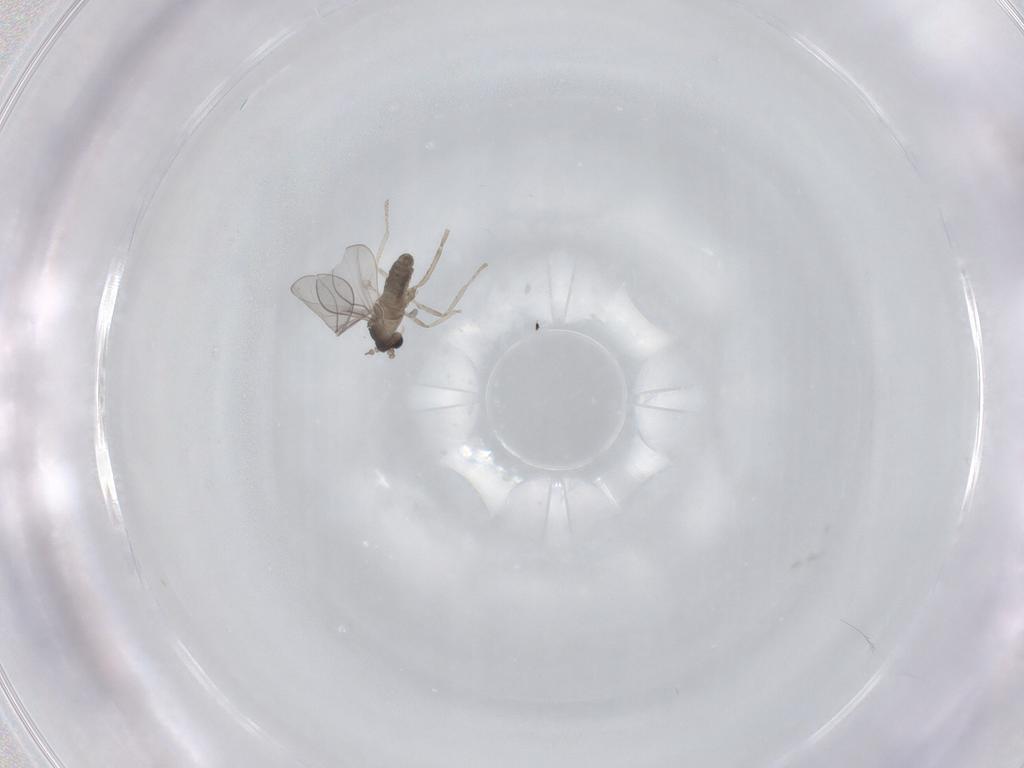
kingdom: Animalia
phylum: Arthropoda
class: Insecta
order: Diptera
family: Cecidomyiidae
